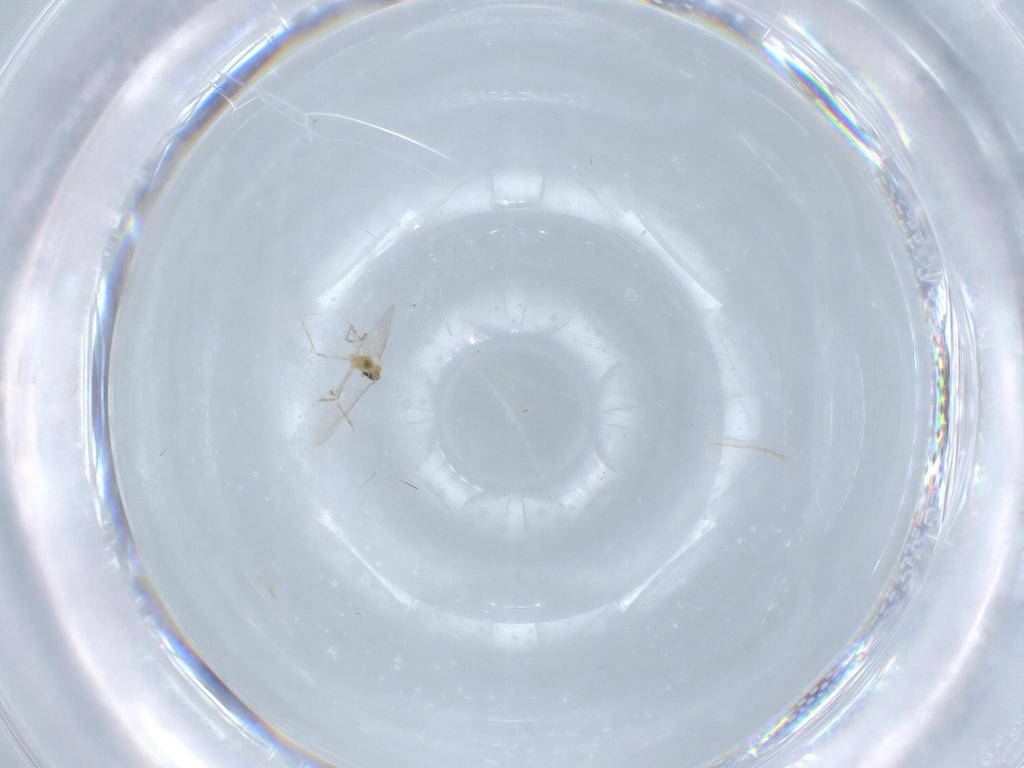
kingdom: Animalia
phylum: Arthropoda
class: Insecta
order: Diptera
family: Cecidomyiidae
